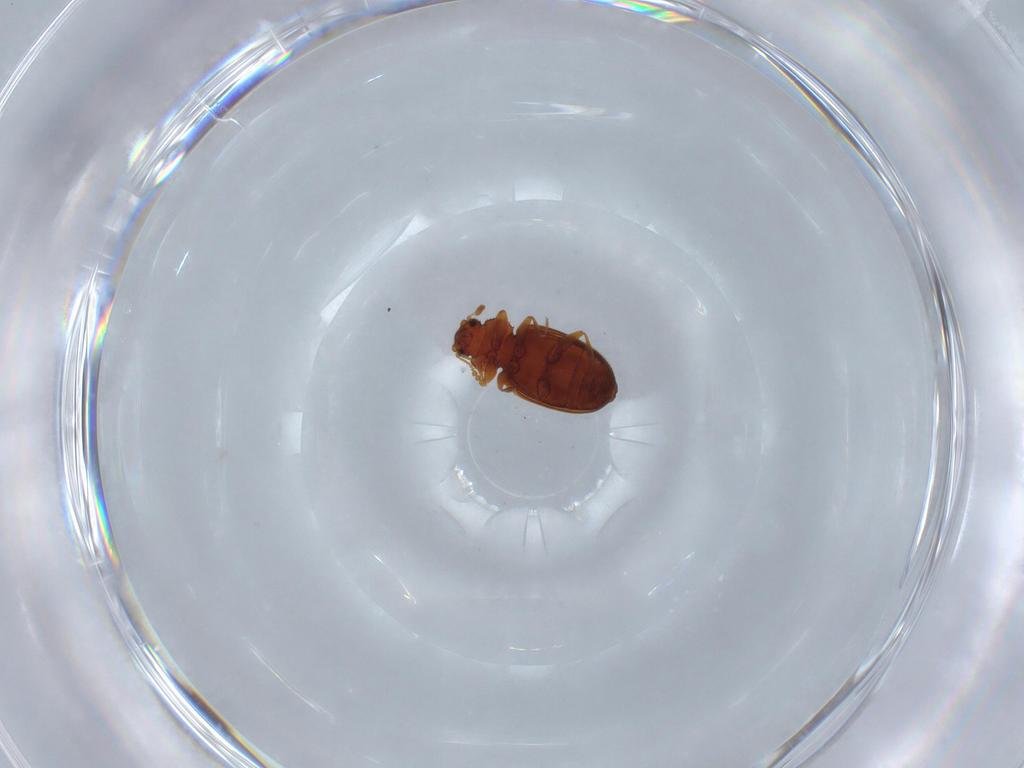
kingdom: Animalia
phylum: Arthropoda
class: Insecta
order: Coleoptera
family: Latridiidae
